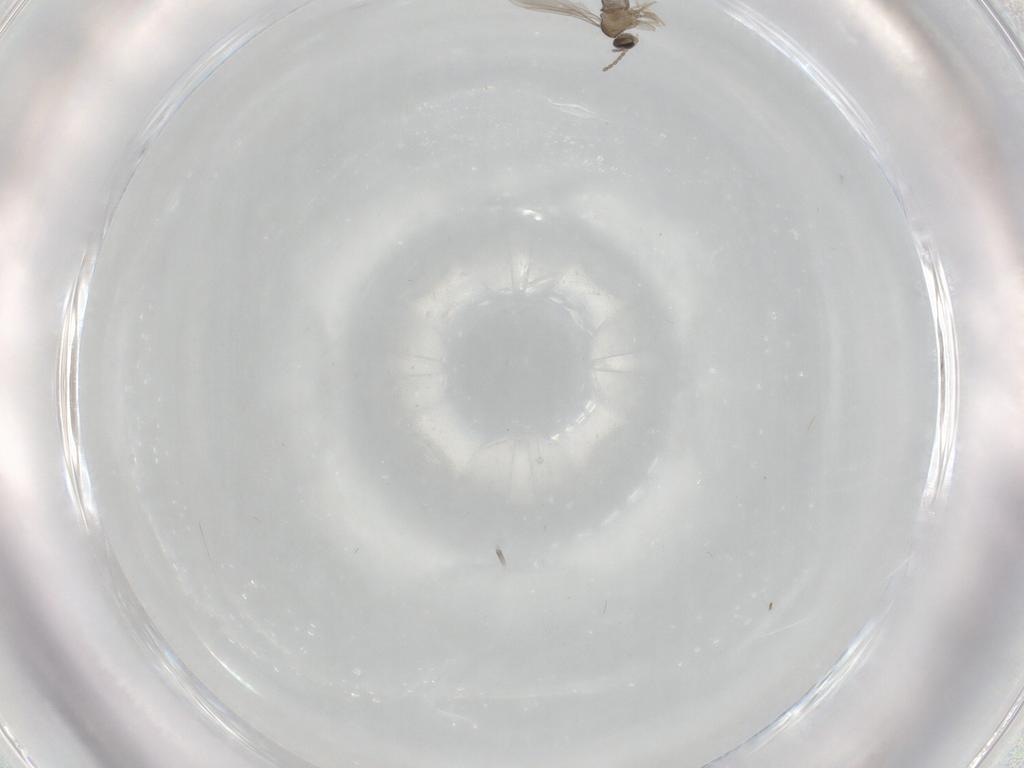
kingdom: Animalia
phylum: Arthropoda
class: Insecta
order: Diptera
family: Cecidomyiidae
